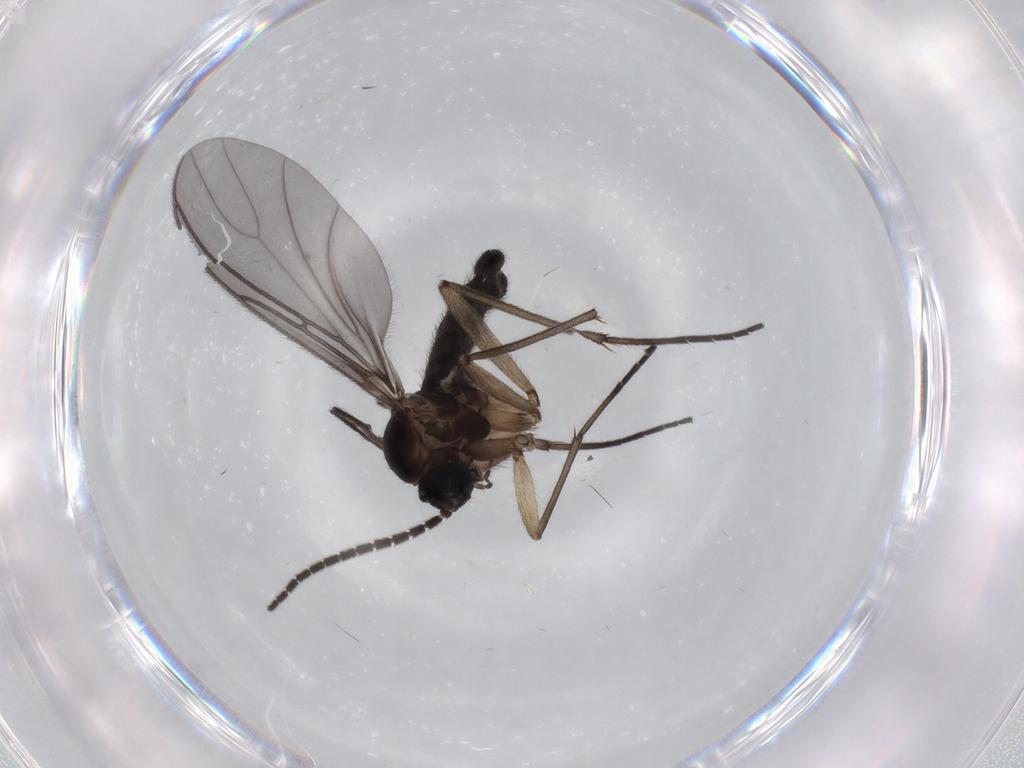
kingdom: Animalia
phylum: Arthropoda
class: Insecta
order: Diptera
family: Sciaridae
